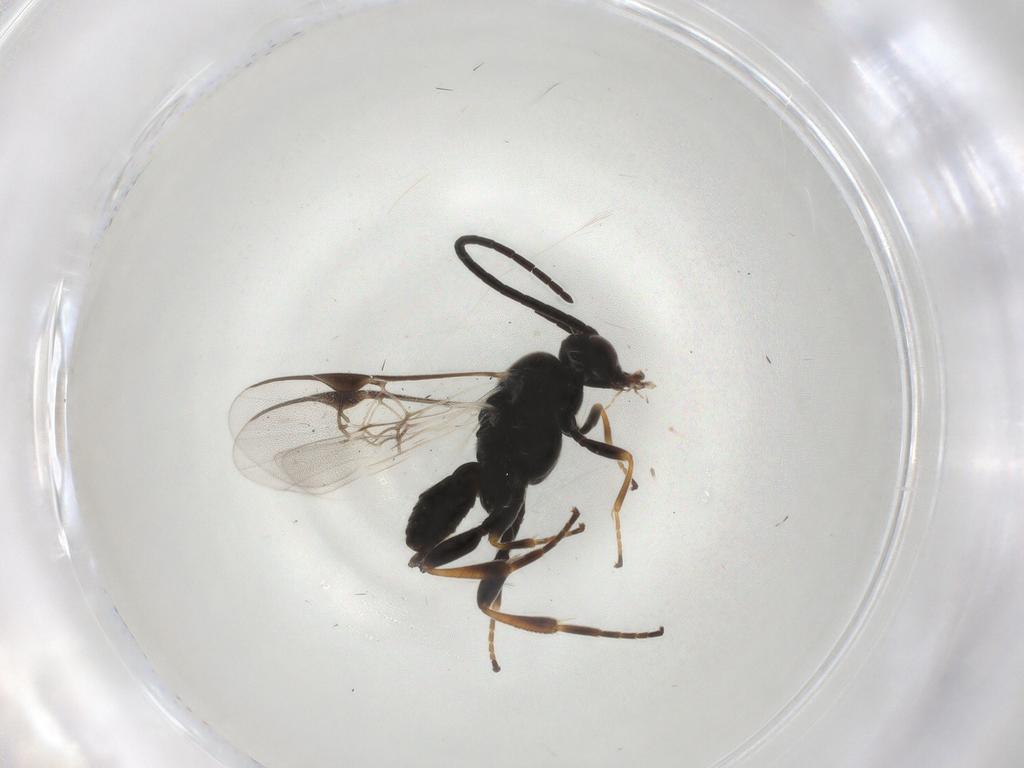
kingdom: Animalia
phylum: Arthropoda
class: Insecta
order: Hymenoptera
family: Braconidae
